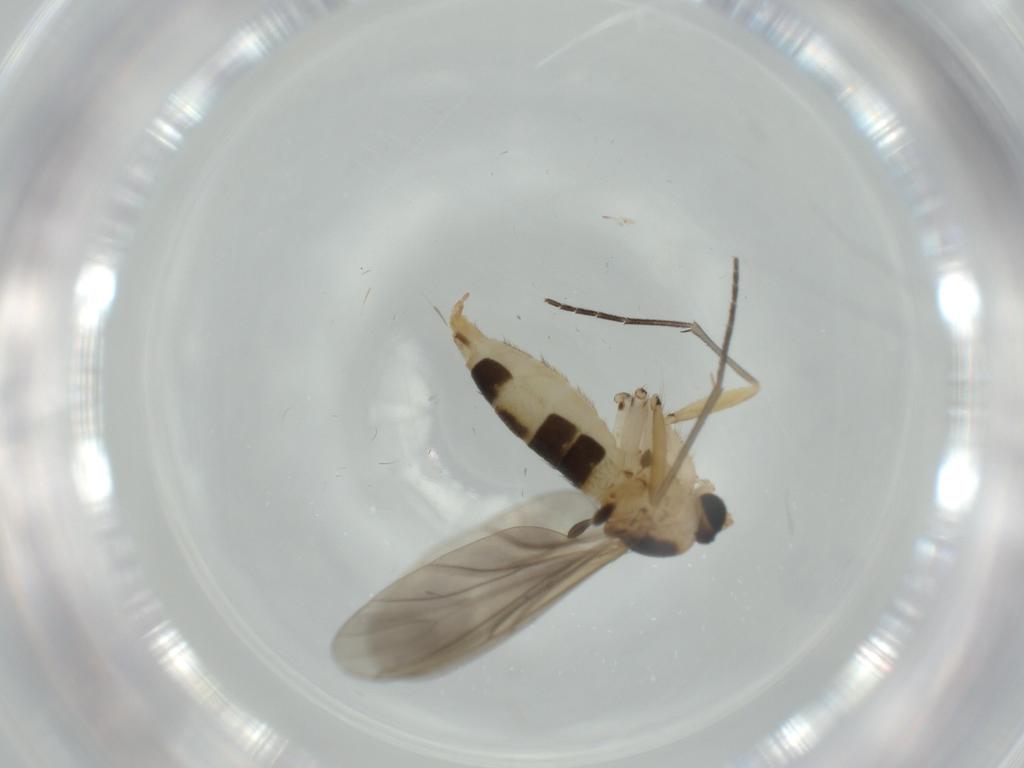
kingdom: Animalia
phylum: Arthropoda
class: Insecta
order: Diptera
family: Sciaridae
